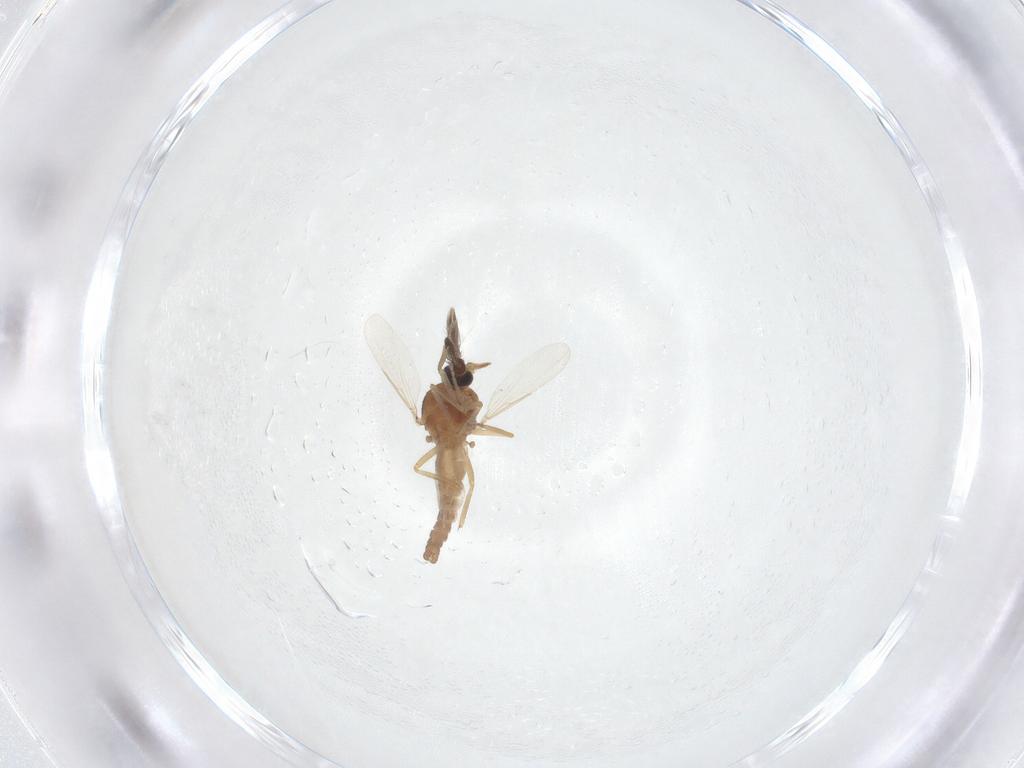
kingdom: Animalia
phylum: Arthropoda
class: Insecta
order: Diptera
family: Ceratopogonidae
